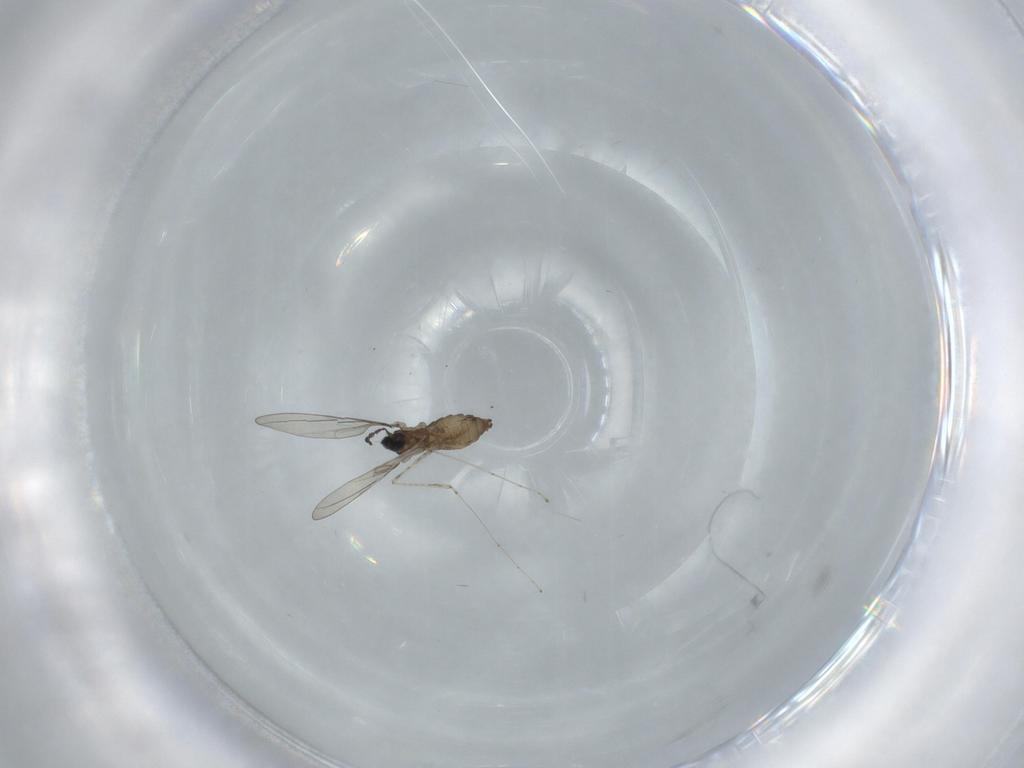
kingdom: Animalia
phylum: Arthropoda
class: Insecta
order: Diptera
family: Cecidomyiidae
